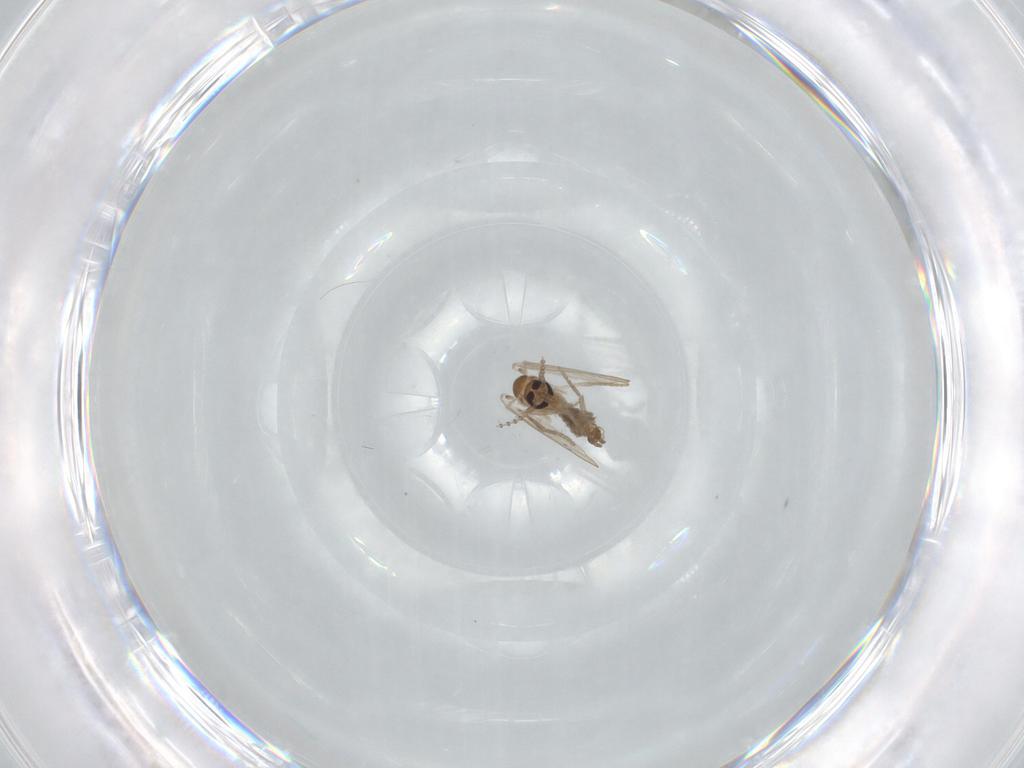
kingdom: Animalia
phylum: Arthropoda
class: Insecta
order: Diptera
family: Psychodidae
